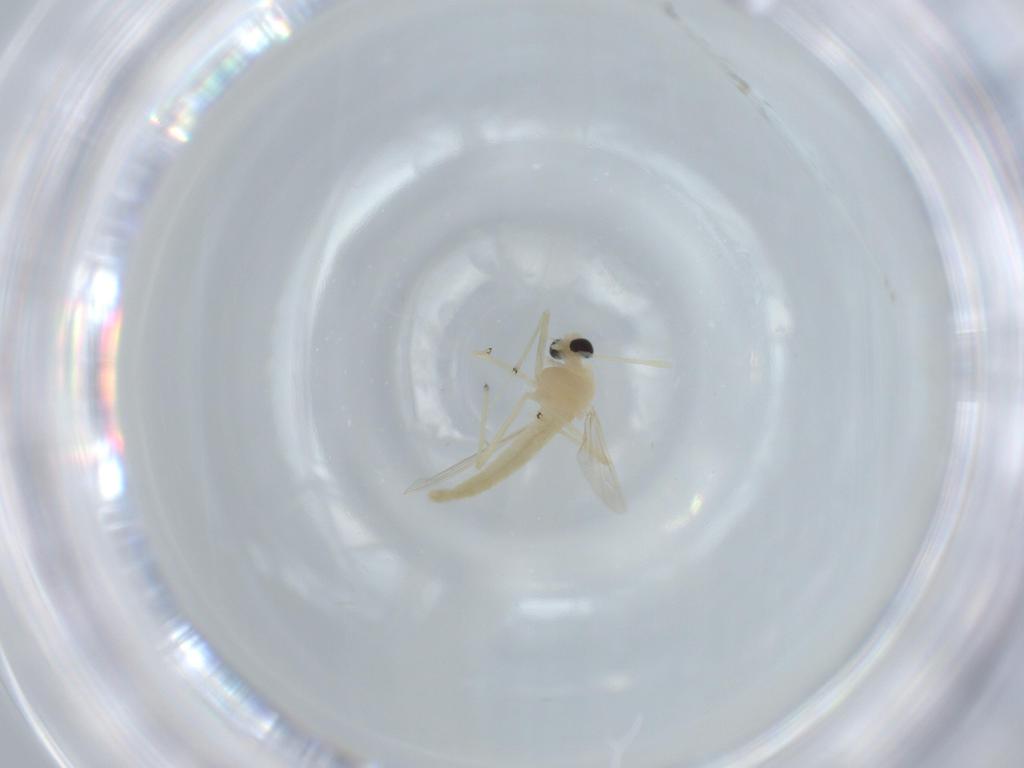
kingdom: Animalia
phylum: Arthropoda
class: Insecta
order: Diptera
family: Chironomidae
